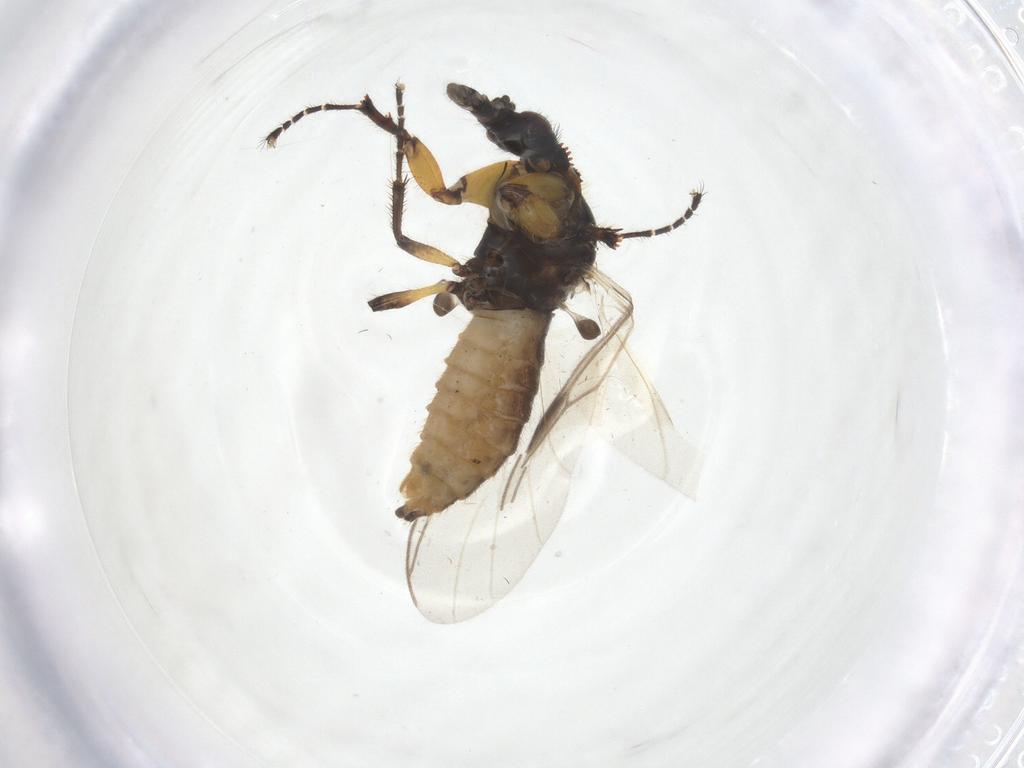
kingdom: Animalia
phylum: Arthropoda
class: Insecta
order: Diptera
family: Bibionidae
